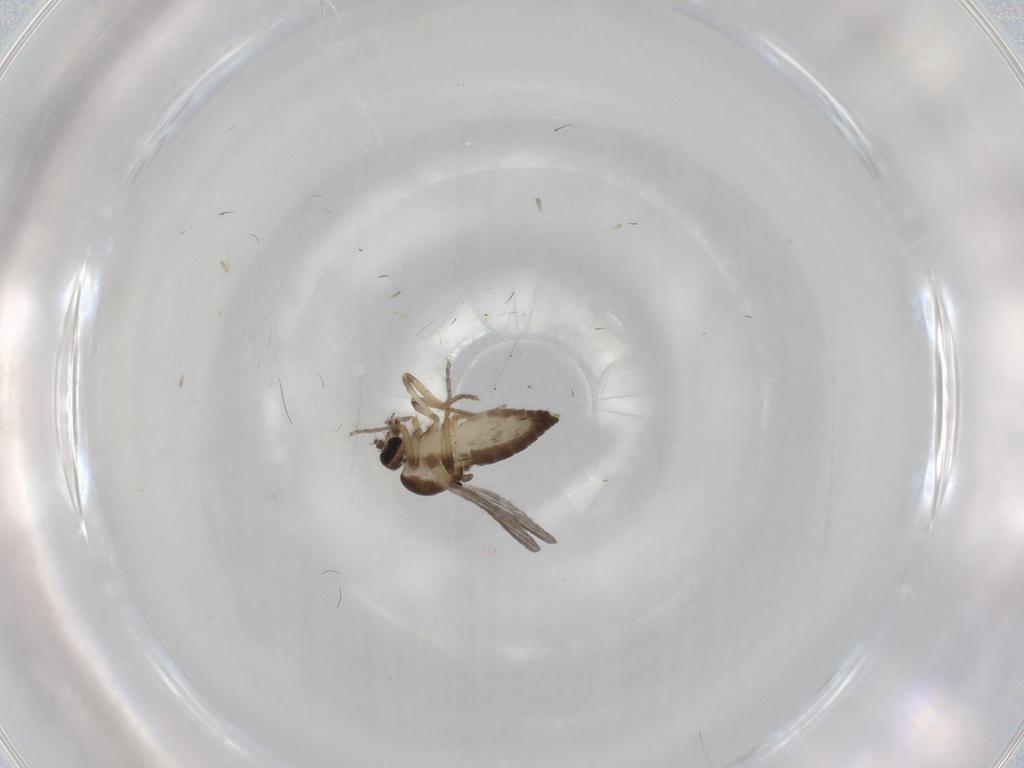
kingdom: Animalia
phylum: Arthropoda
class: Insecta
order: Diptera
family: Ceratopogonidae
